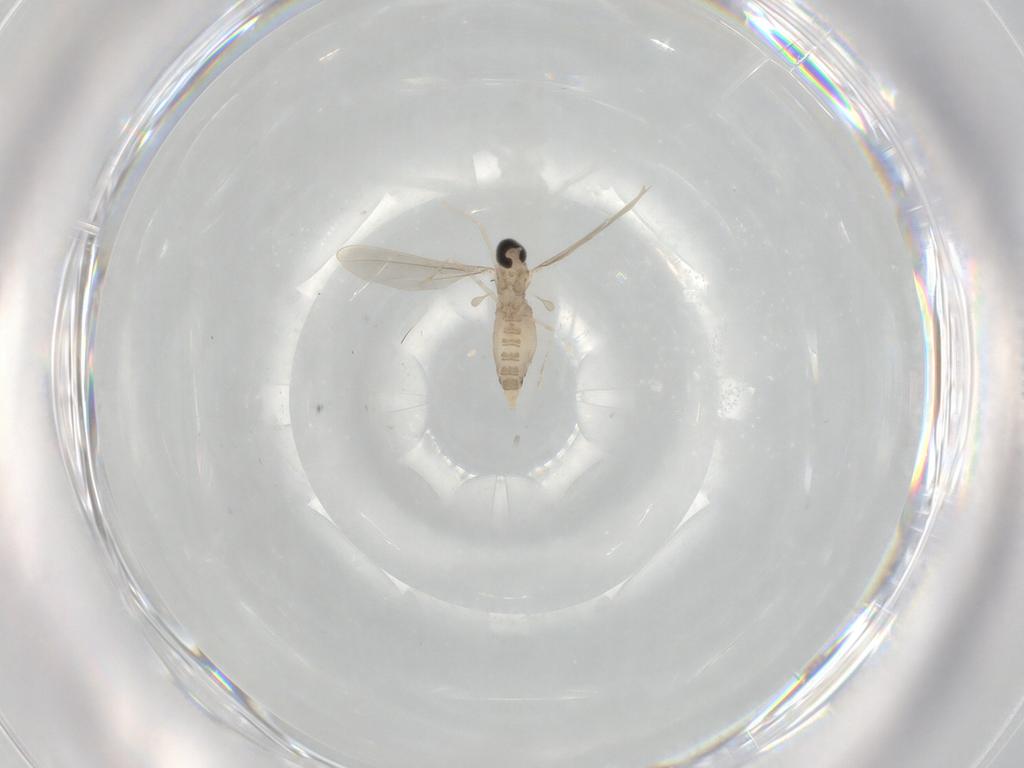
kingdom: Animalia
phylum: Arthropoda
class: Insecta
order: Diptera
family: Cecidomyiidae
